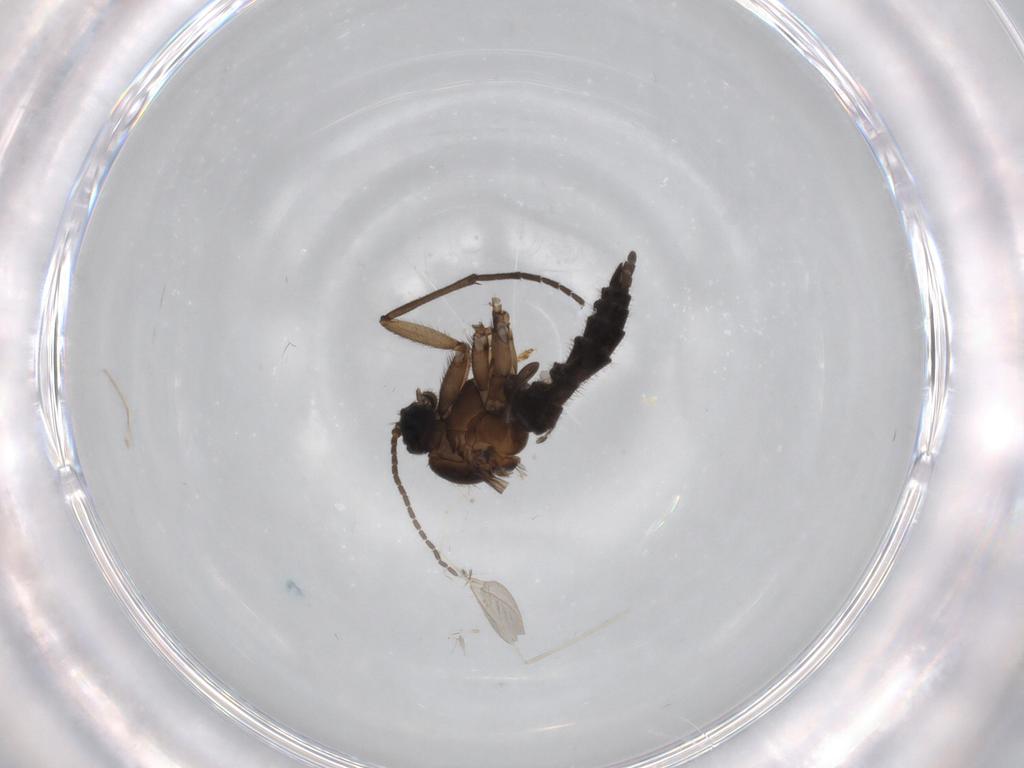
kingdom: Animalia
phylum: Arthropoda
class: Insecta
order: Diptera
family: Sciaridae
